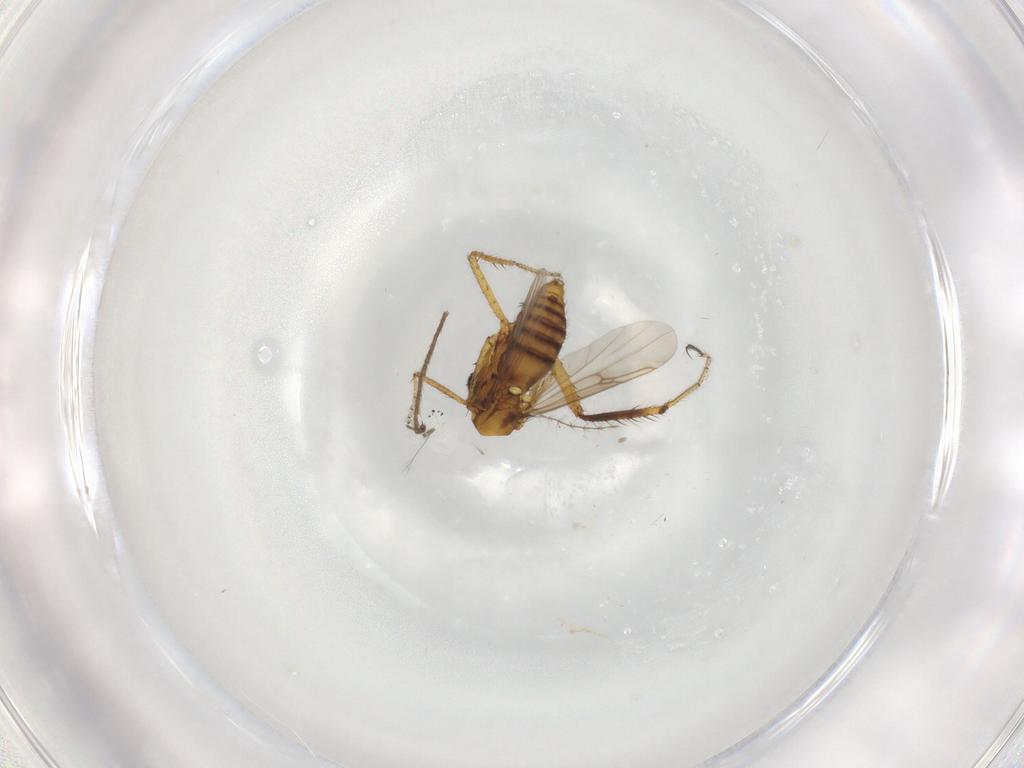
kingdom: Animalia
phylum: Arthropoda
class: Insecta
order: Diptera
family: Ceratopogonidae
